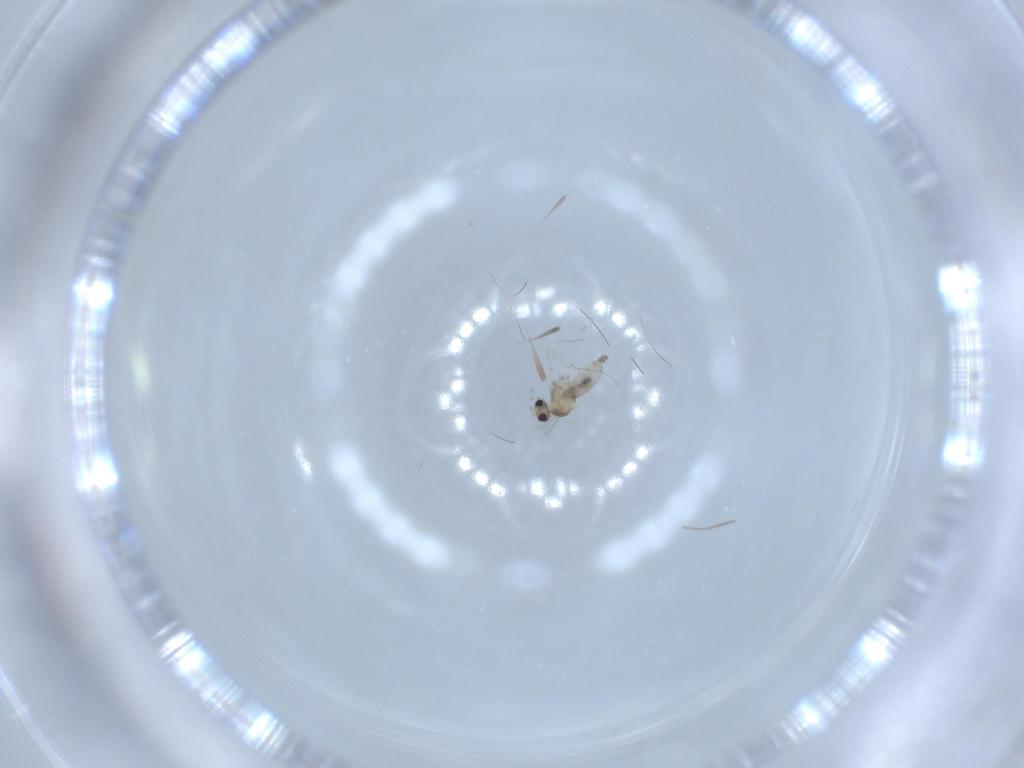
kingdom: Animalia
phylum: Arthropoda
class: Insecta
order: Diptera
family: Cecidomyiidae
